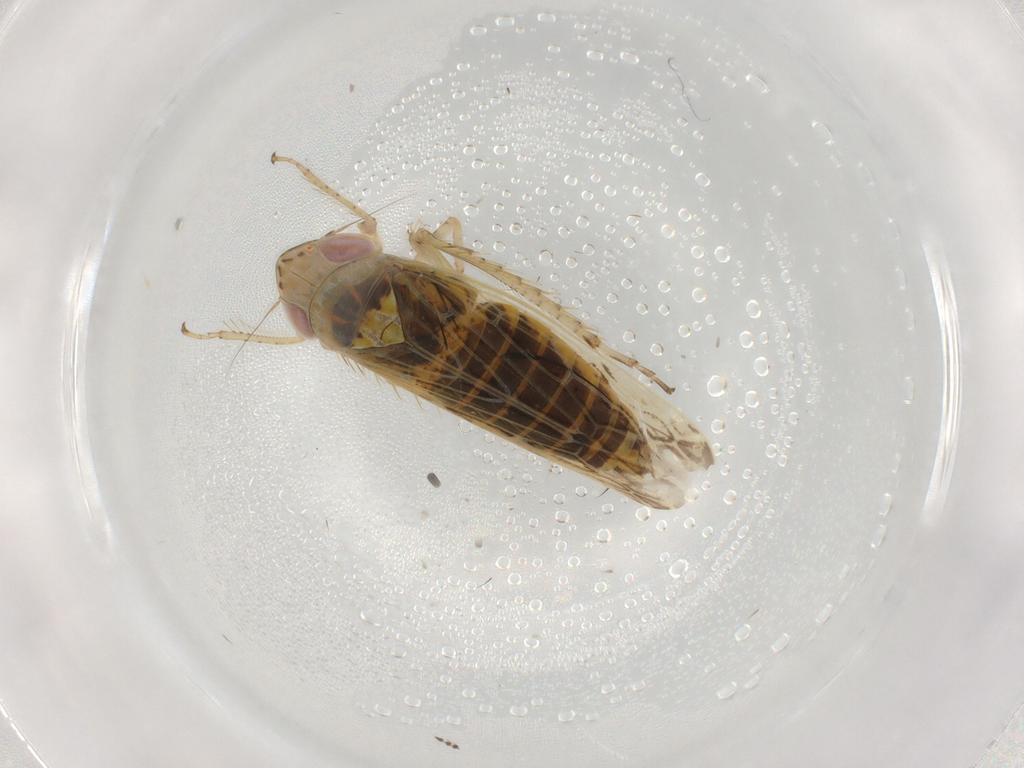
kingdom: Animalia
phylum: Arthropoda
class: Insecta
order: Hemiptera
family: Cicadellidae
